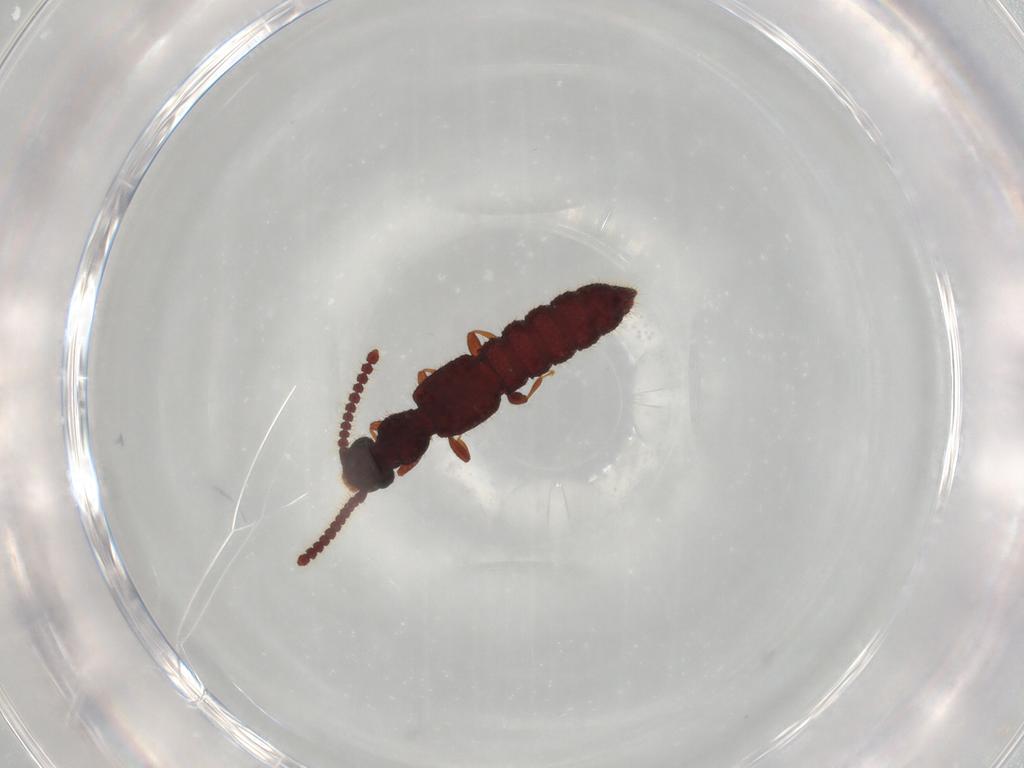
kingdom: Animalia
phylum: Arthropoda
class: Insecta
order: Coleoptera
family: Staphylinidae
